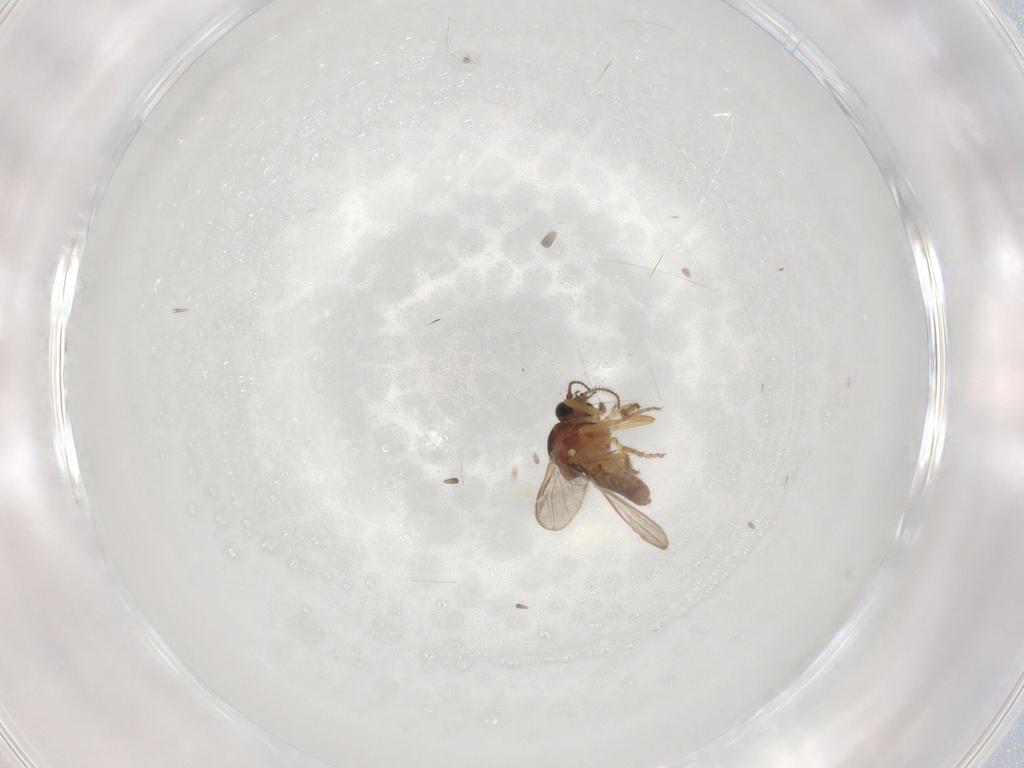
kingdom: Animalia
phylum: Arthropoda
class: Insecta
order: Diptera
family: Ceratopogonidae
